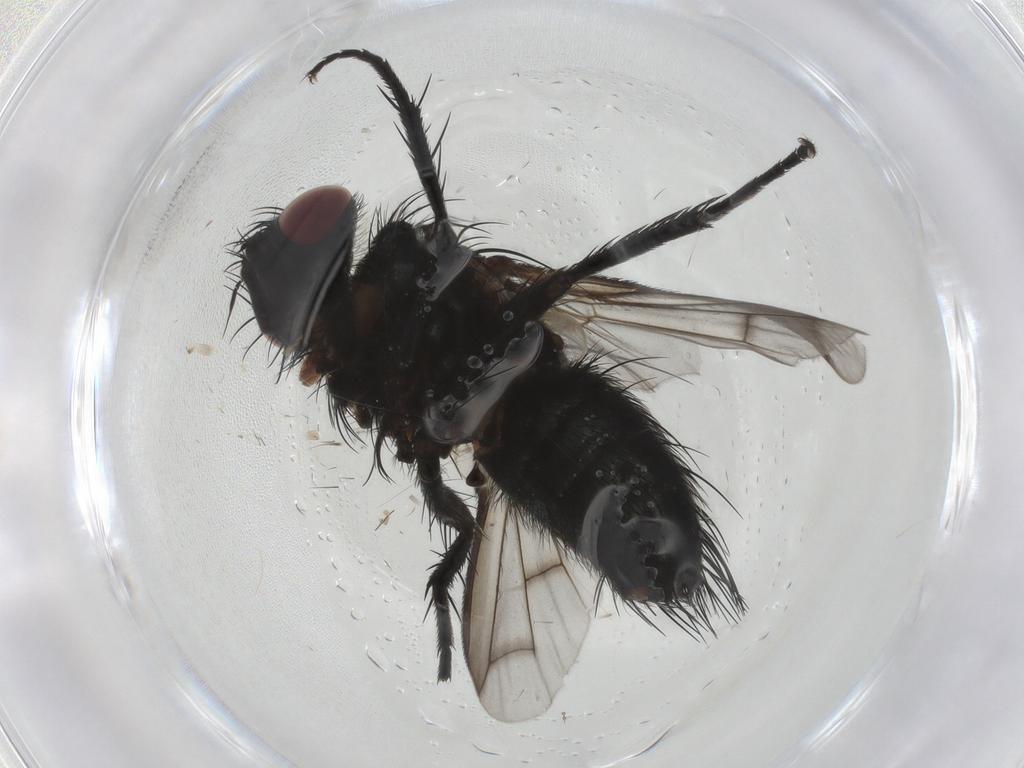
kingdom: Animalia
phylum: Arthropoda
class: Insecta
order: Diptera
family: Tachinidae
